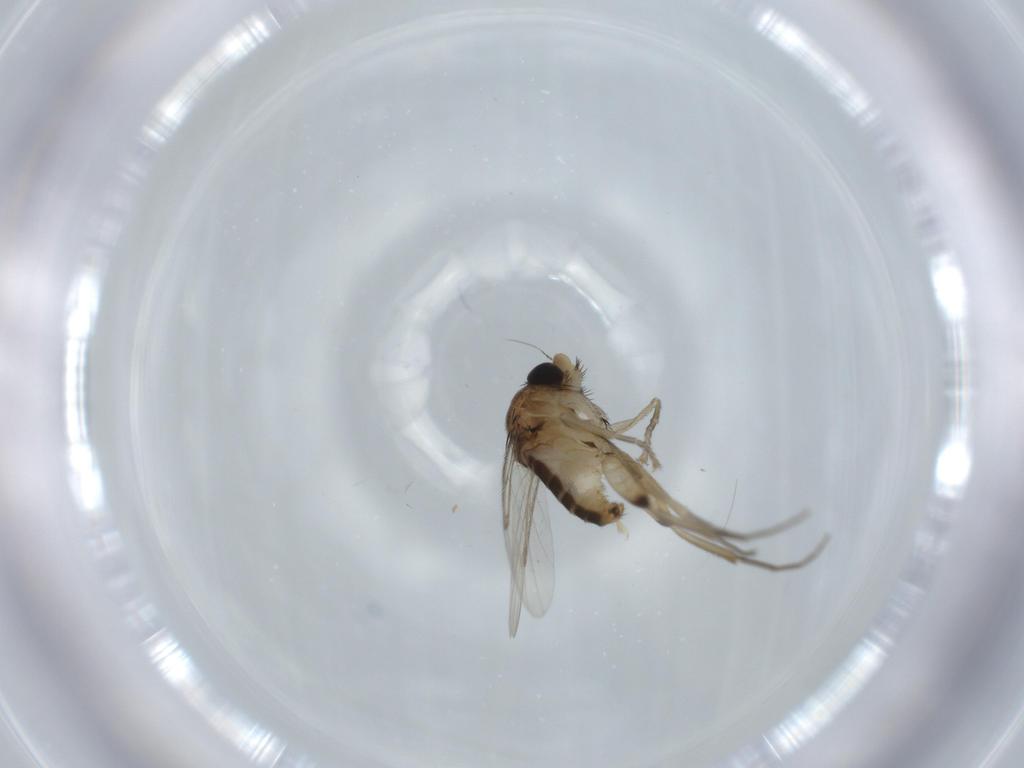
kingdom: Animalia
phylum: Arthropoda
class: Insecta
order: Diptera
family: Phoridae
